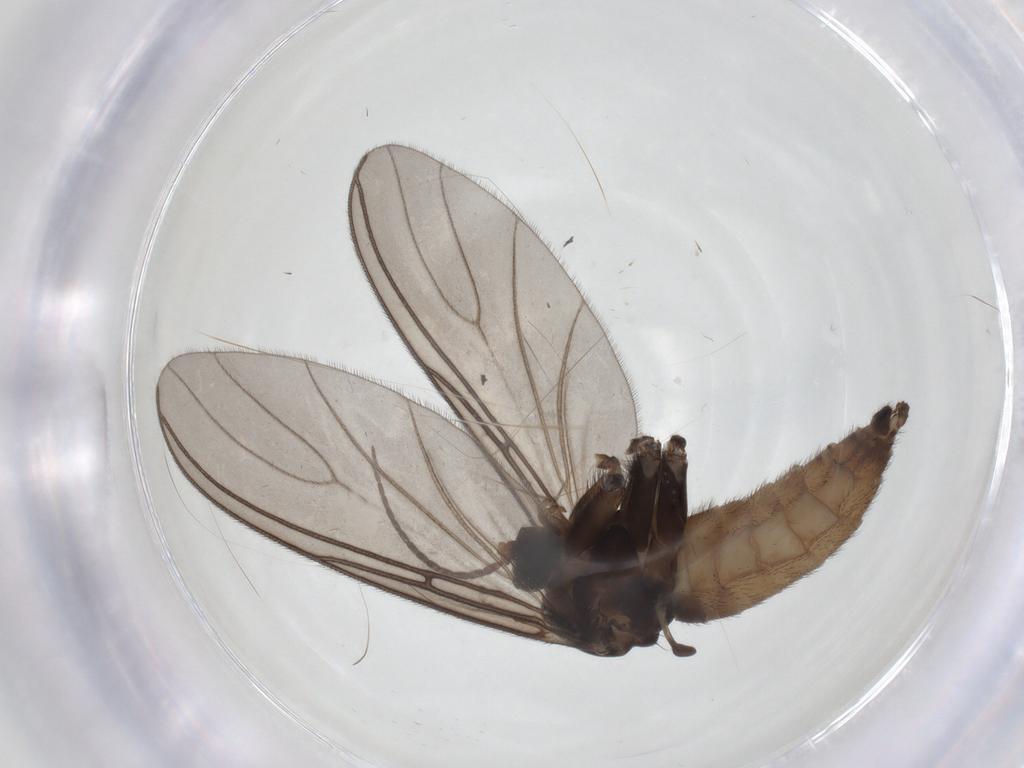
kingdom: Animalia
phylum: Arthropoda
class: Insecta
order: Diptera
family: Sciaridae
